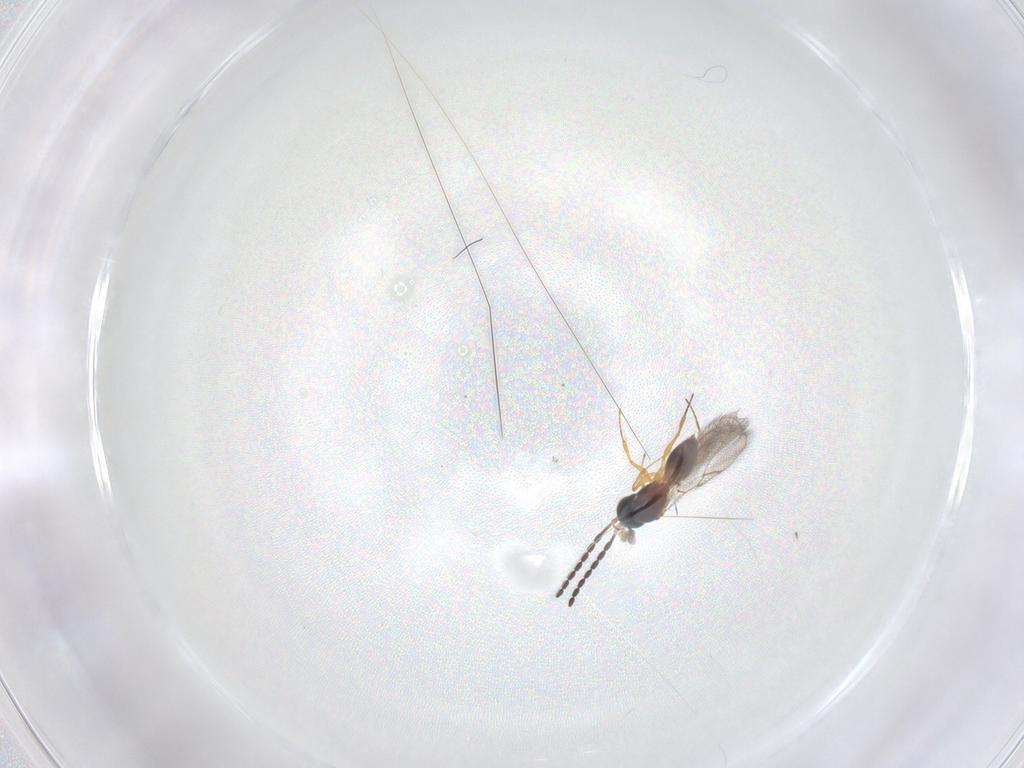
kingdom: Animalia
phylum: Arthropoda
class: Insecta
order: Hymenoptera
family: Figitidae
